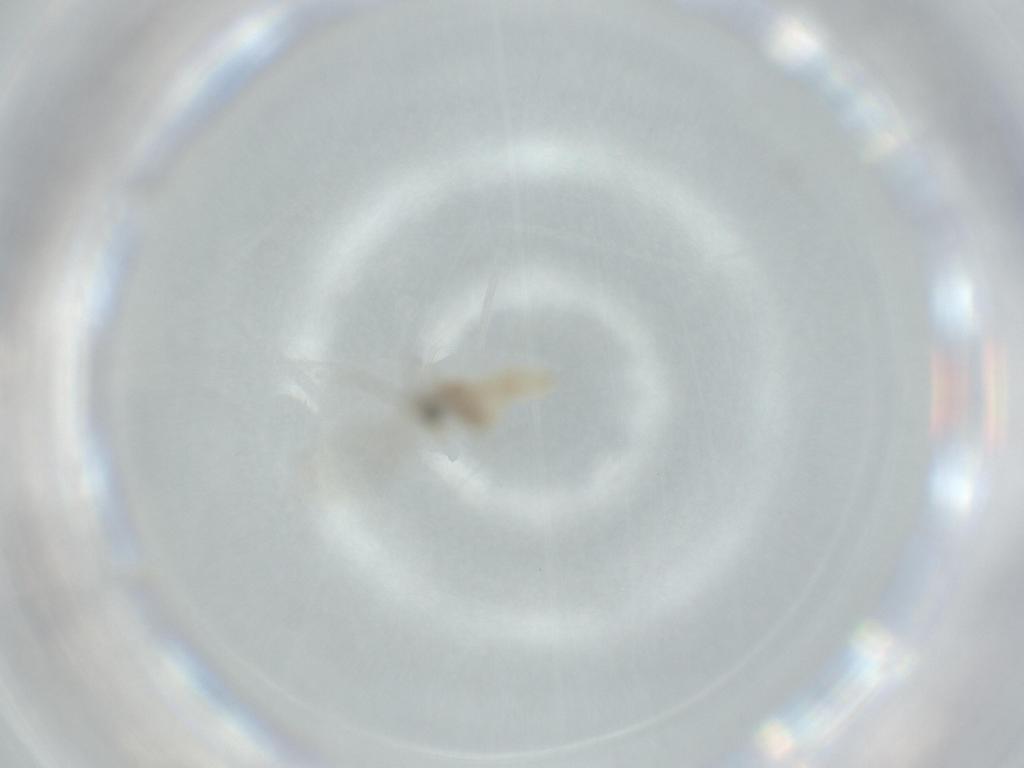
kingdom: Animalia
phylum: Arthropoda
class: Insecta
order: Diptera
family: Cecidomyiidae
